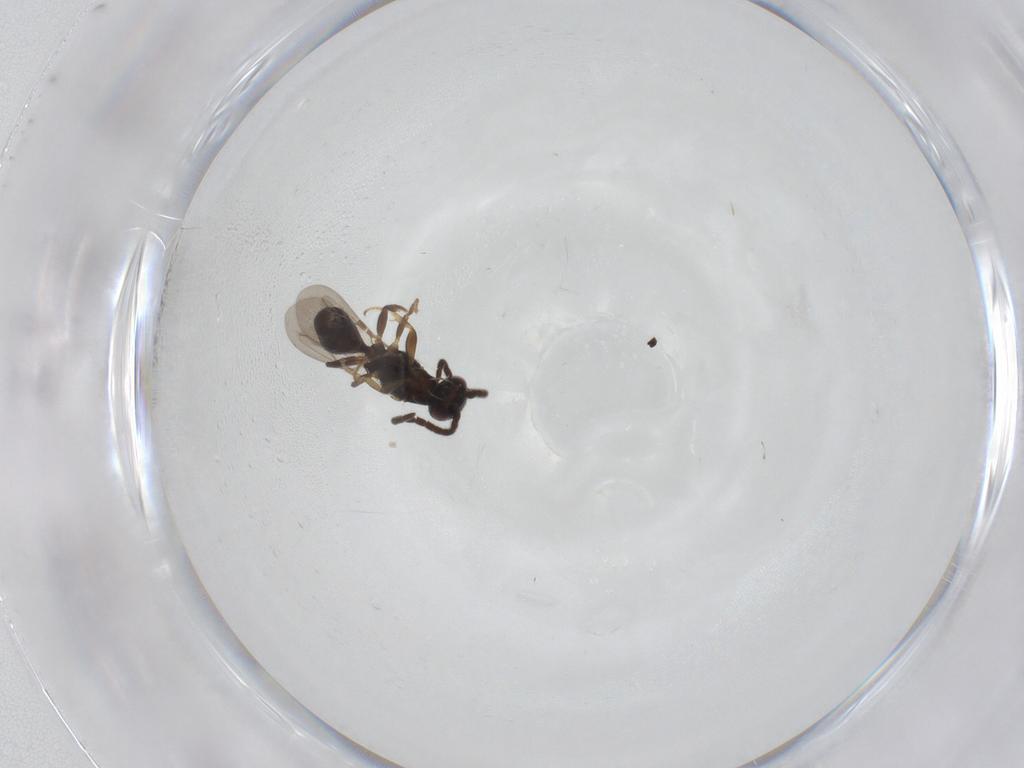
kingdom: Animalia
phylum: Arthropoda
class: Insecta
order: Hymenoptera
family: Bethylidae
